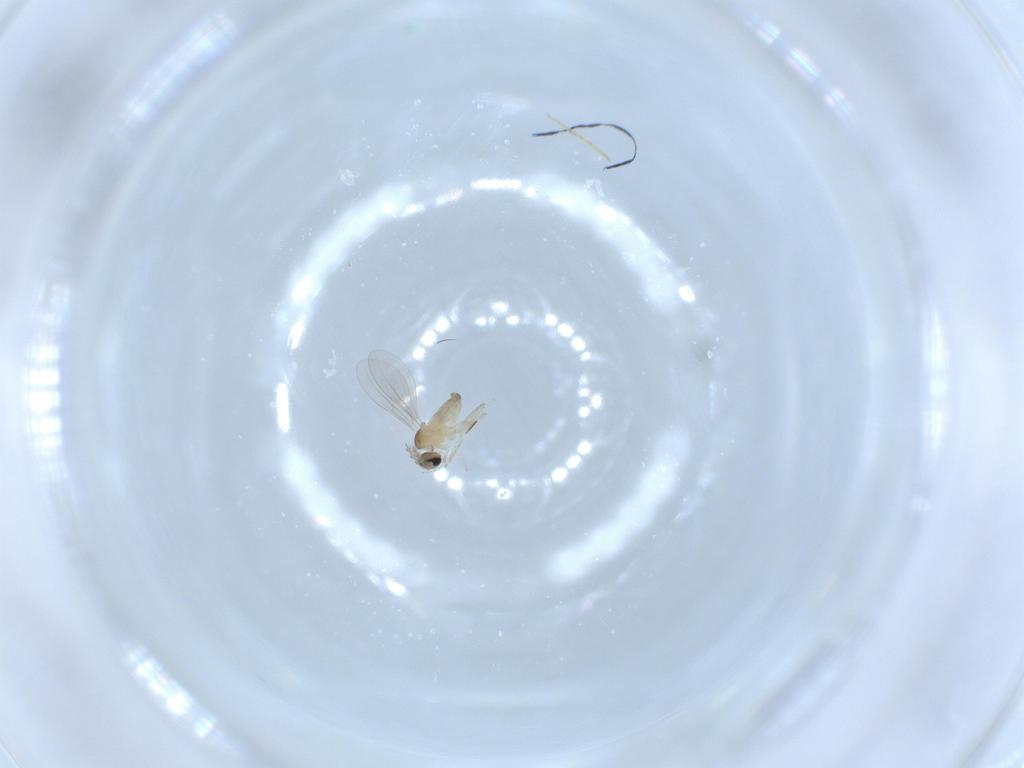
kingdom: Animalia
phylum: Arthropoda
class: Insecta
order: Diptera
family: Cecidomyiidae
